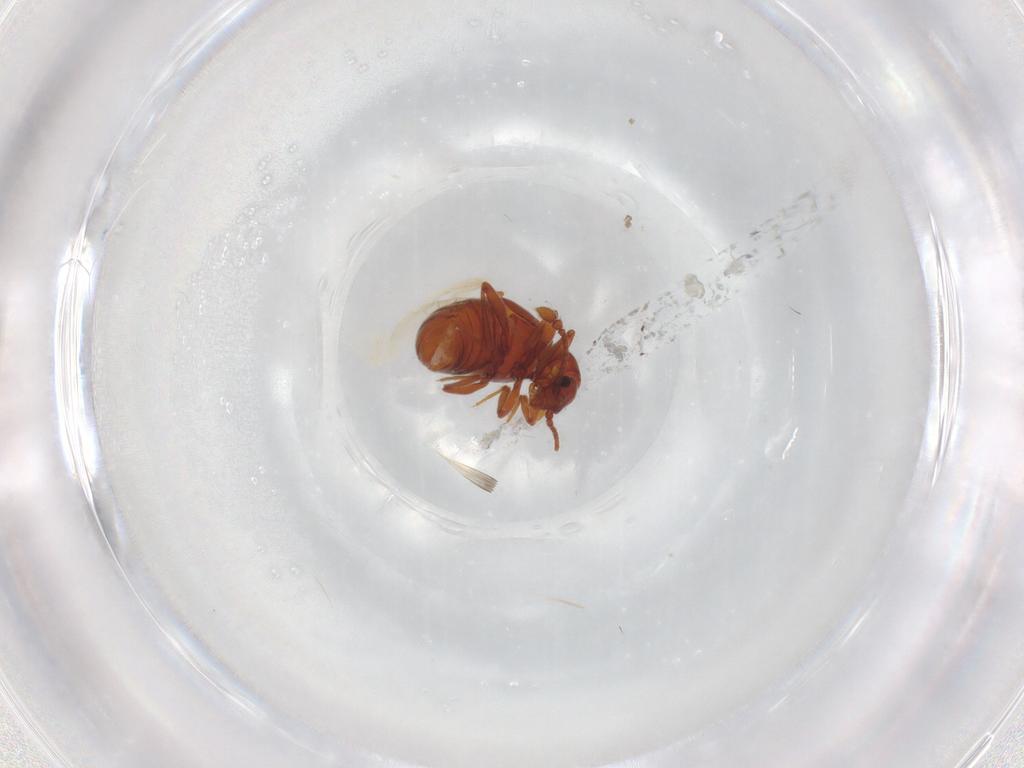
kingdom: Animalia
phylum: Arthropoda
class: Insecta
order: Coleoptera
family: Staphylinidae
